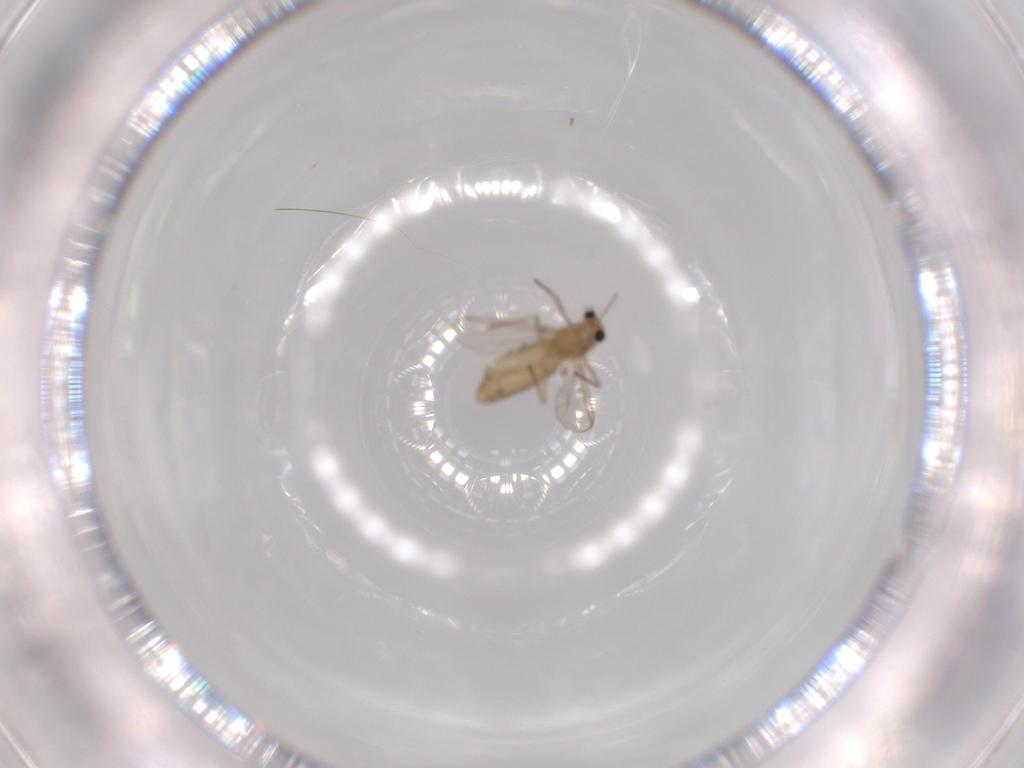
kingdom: Animalia
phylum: Arthropoda
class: Insecta
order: Diptera
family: Chironomidae
